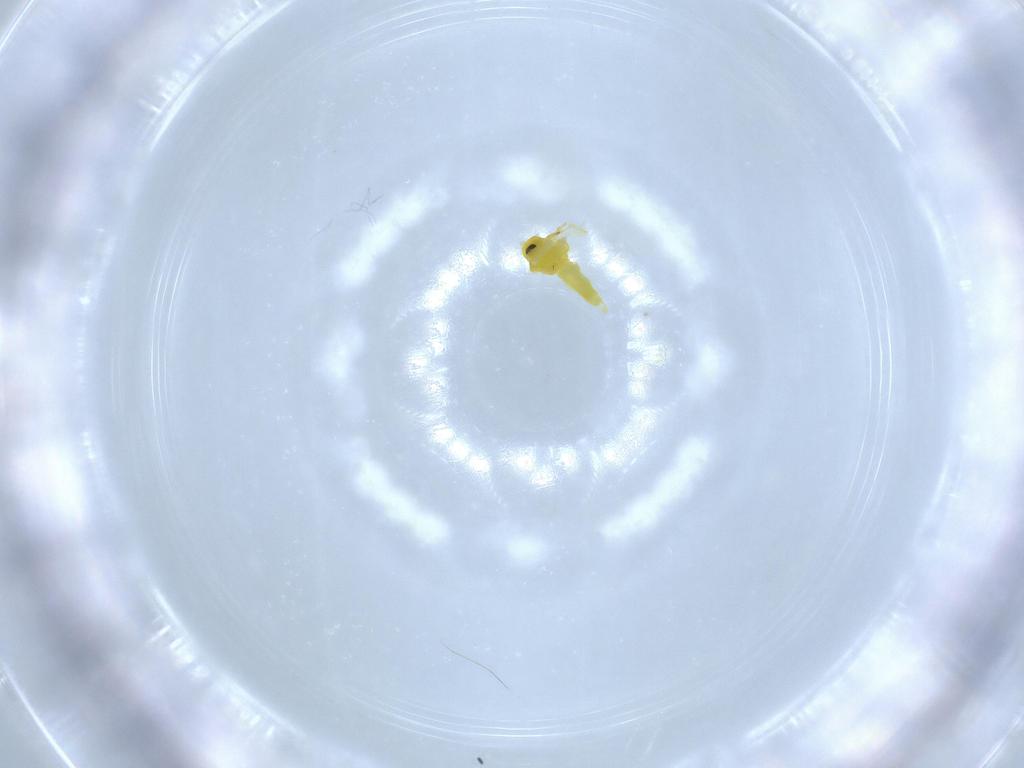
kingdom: Animalia
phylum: Arthropoda
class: Insecta
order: Hemiptera
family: Aleyrodidae
